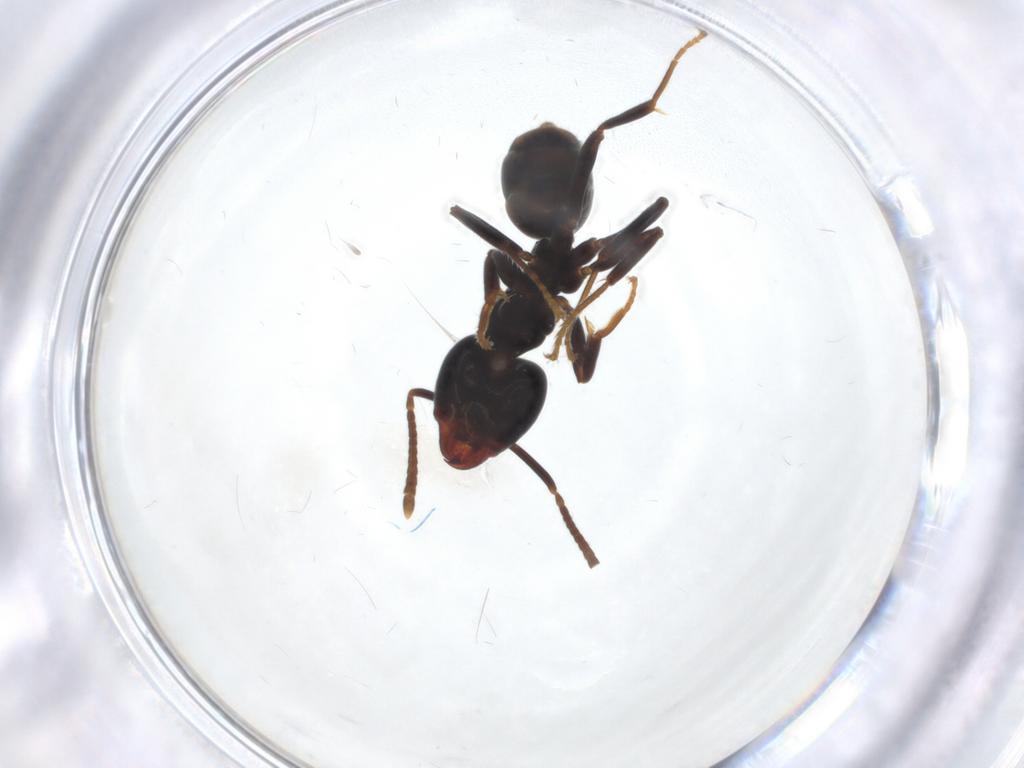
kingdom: Animalia
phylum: Arthropoda
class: Insecta
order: Hymenoptera
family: Formicidae
